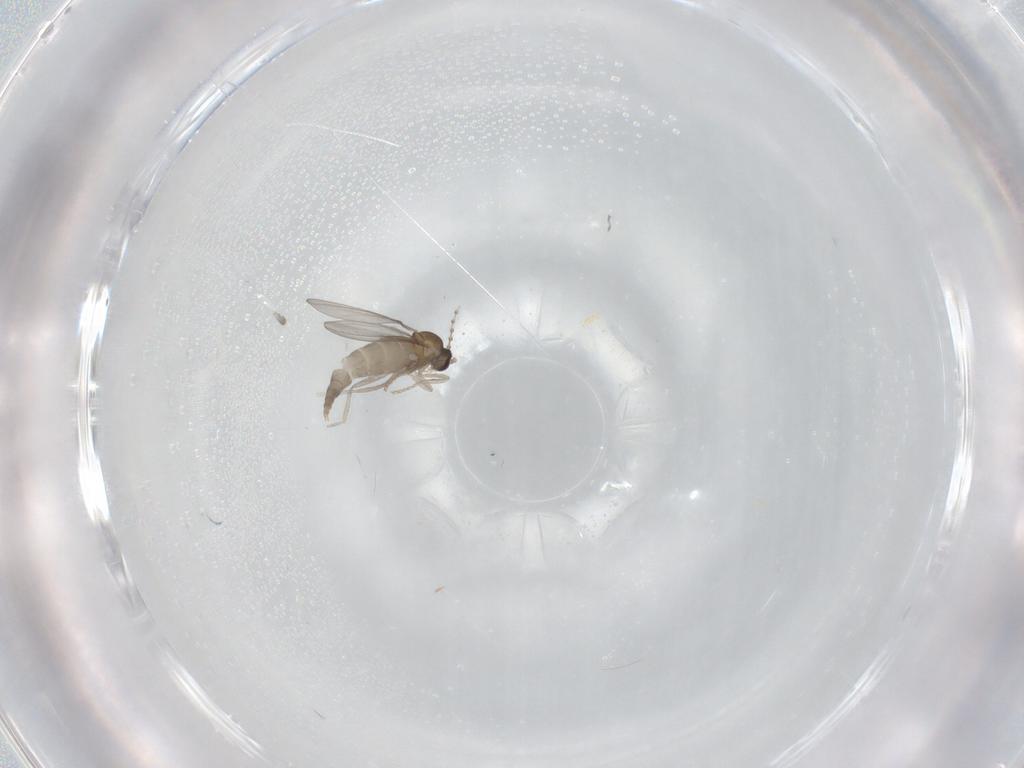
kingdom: Animalia
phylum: Arthropoda
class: Insecta
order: Diptera
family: Cecidomyiidae
